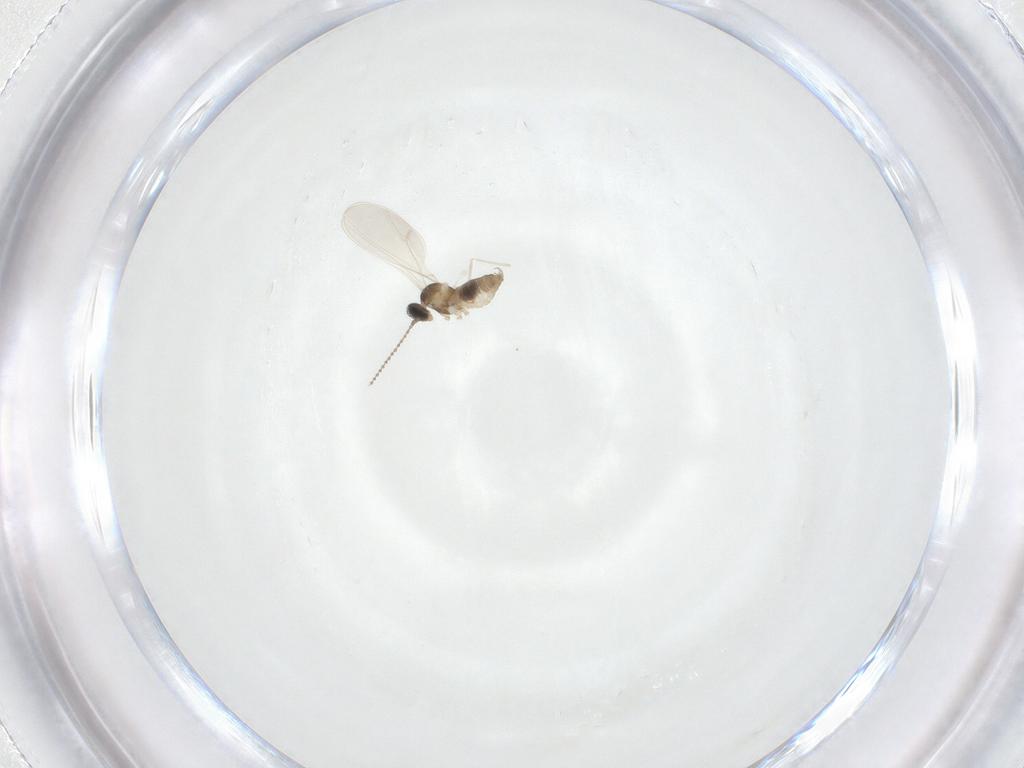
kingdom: Animalia
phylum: Arthropoda
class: Insecta
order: Diptera
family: Cecidomyiidae
